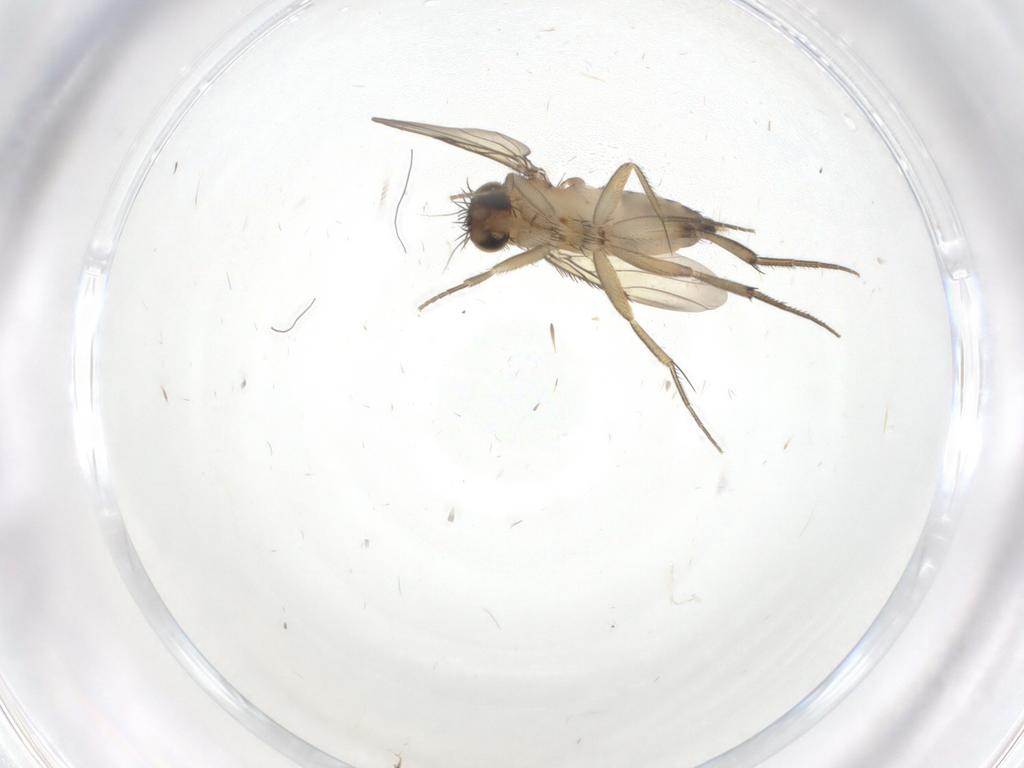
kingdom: Animalia
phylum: Arthropoda
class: Insecta
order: Diptera
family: Phoridae
